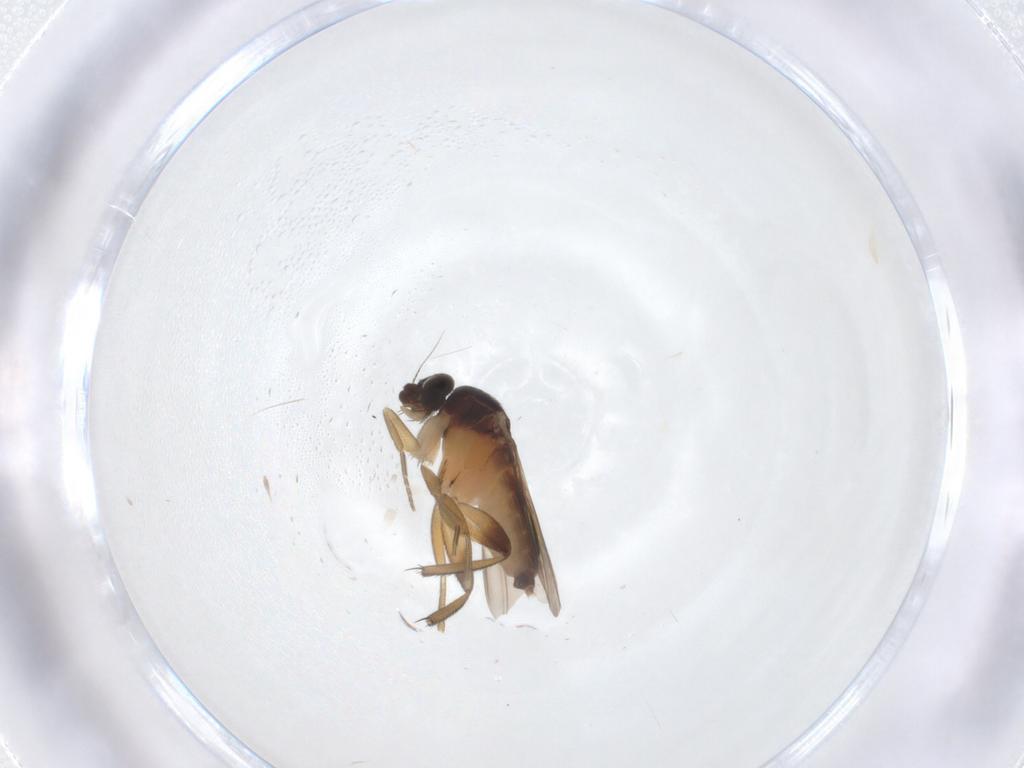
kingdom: Animalia
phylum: Arthropoda
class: Insecta
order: Diptera
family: Phoridae
